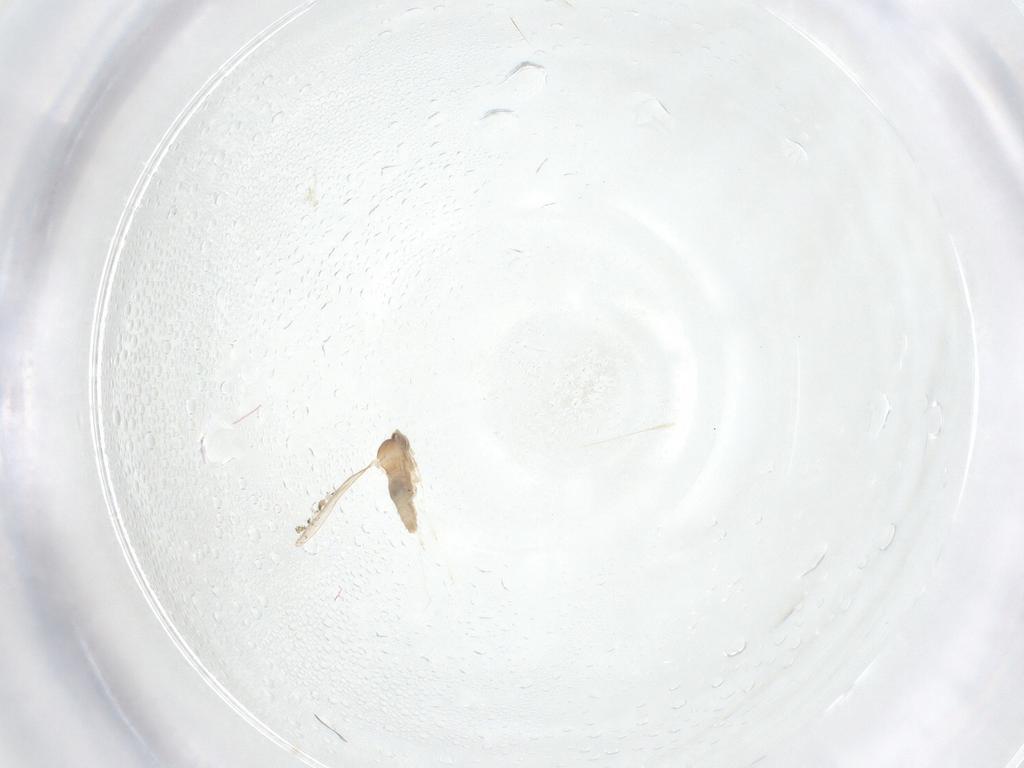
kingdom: Animalia
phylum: Arthropoda
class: Insecta
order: Diptera
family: Cecidomyiidae
